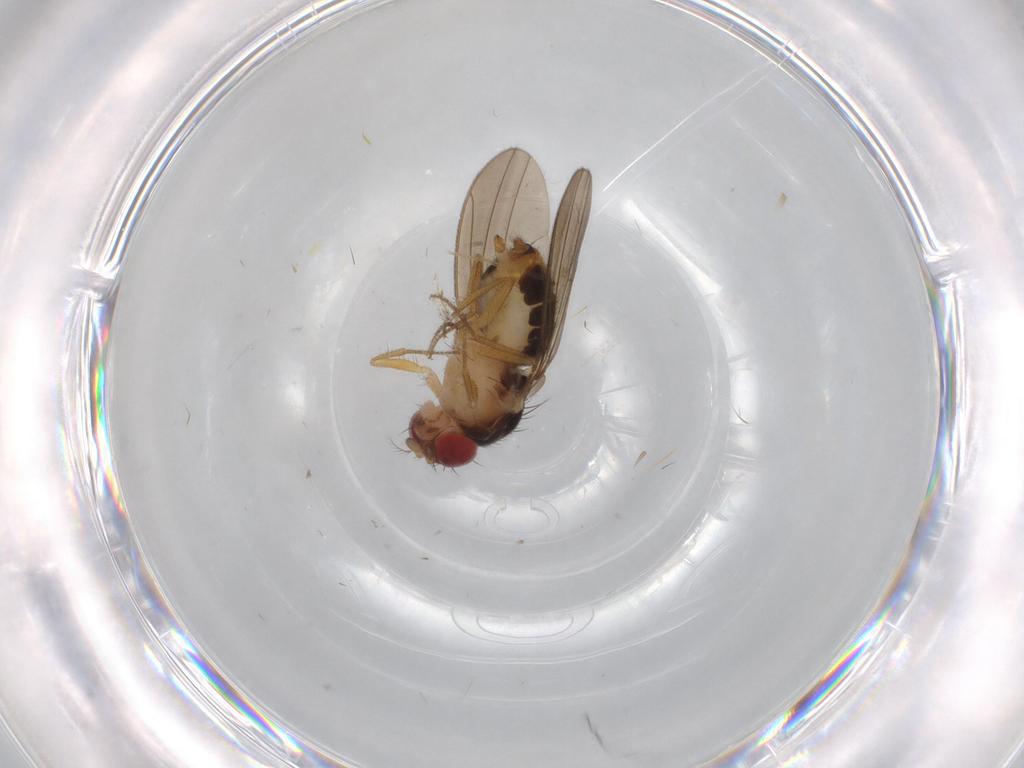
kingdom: Animalia
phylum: Arthropoda
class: Insecta
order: Diptera
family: Drosophilidae
